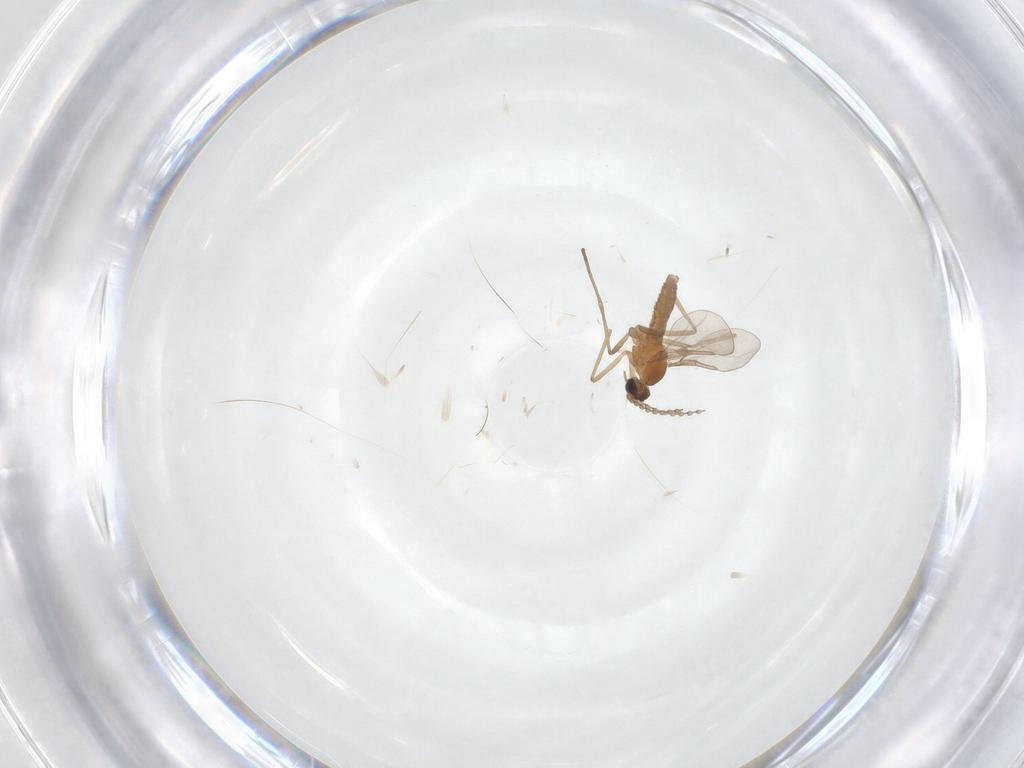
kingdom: Animalia
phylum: Arthropoda
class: Insecta
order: Diptera
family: Cecidomyiidae
